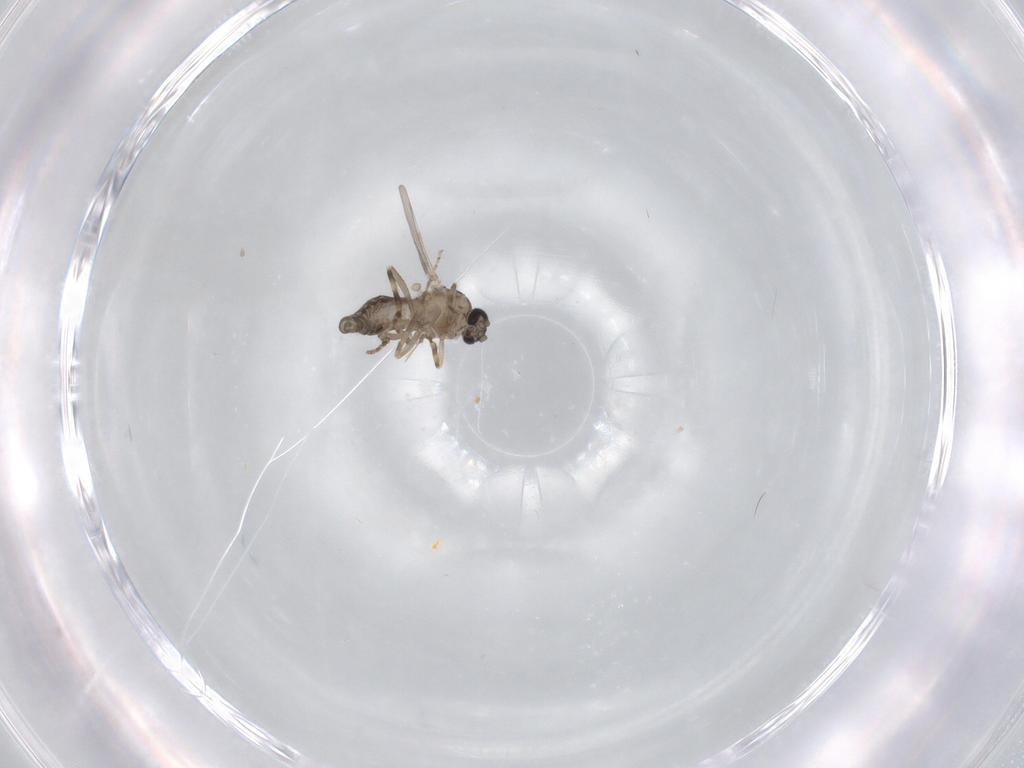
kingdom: Animalia
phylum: Arthropoda
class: Insecta
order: Diptera
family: Ceratopogonidae
